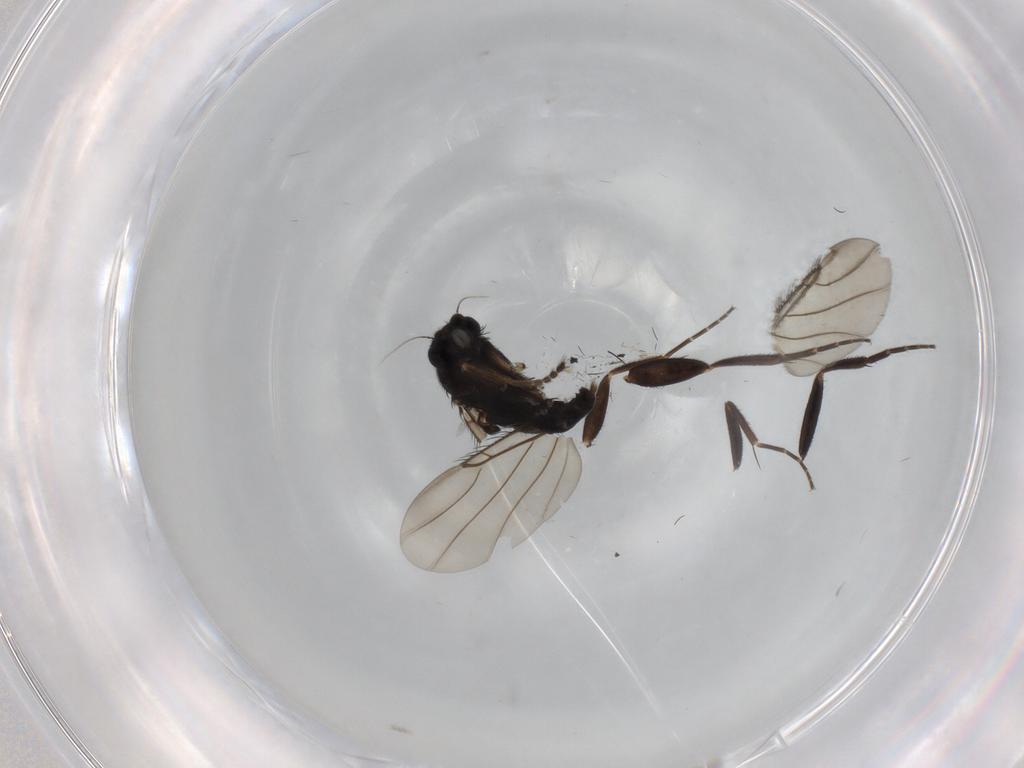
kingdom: Animalia
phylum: Arthropoda
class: Insecta
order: Diptera
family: Phoridae
